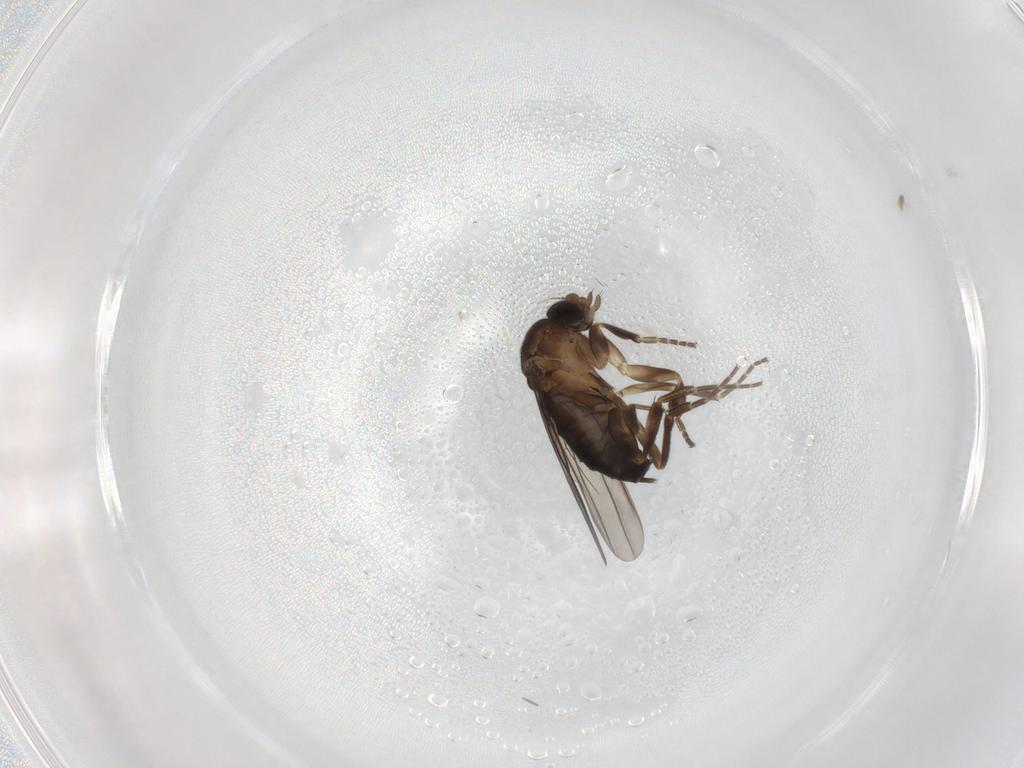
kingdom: Animalia
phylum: Arthropoda
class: Insecta
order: Diptera
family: Phoridae
